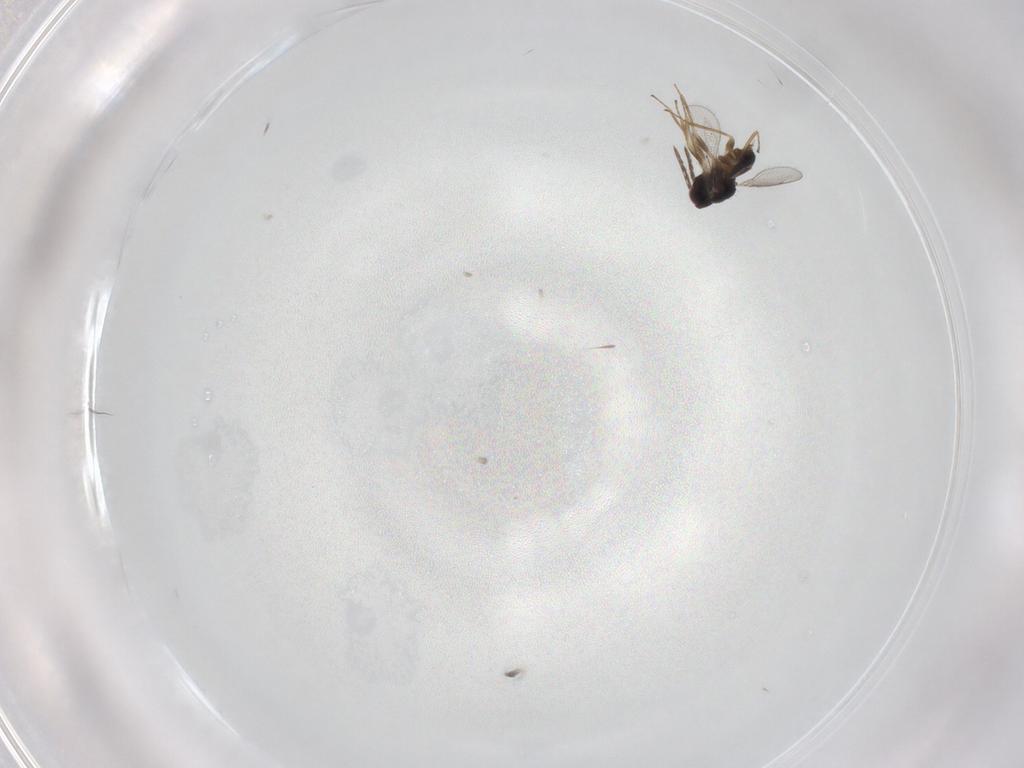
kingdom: Animalia
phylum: Arthropoda
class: Insecta
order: Hymenoptera
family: Eulophidae
